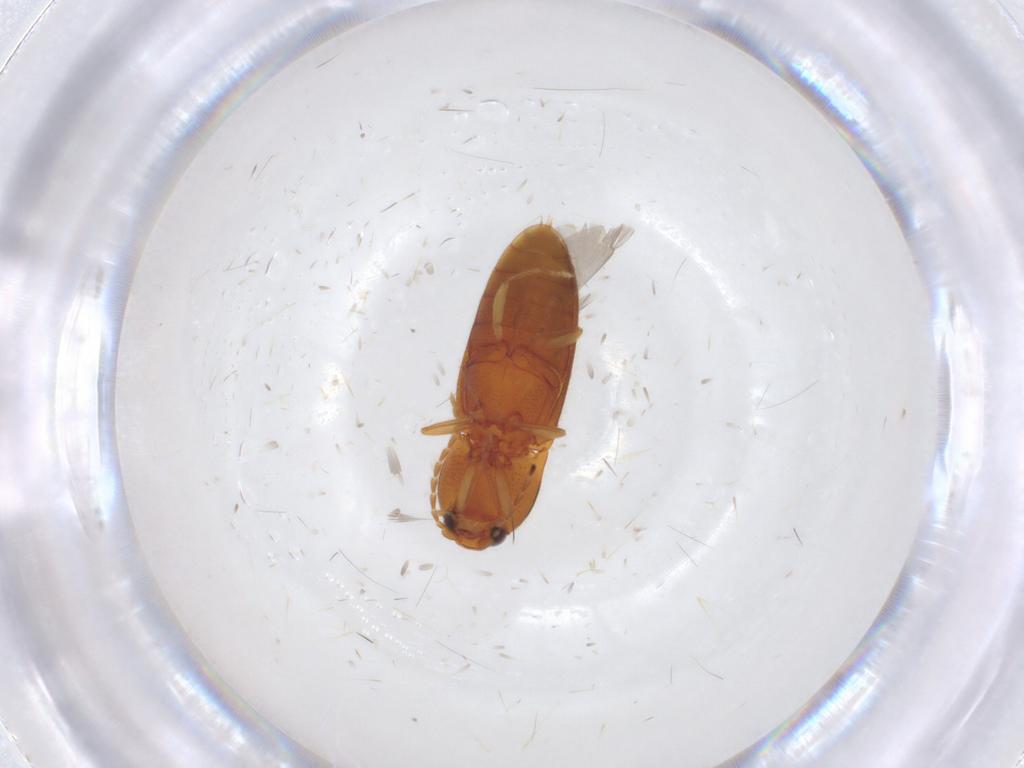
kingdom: Animalia
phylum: Arthropoda
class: Insecta
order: Coleoptera
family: Elateridae
